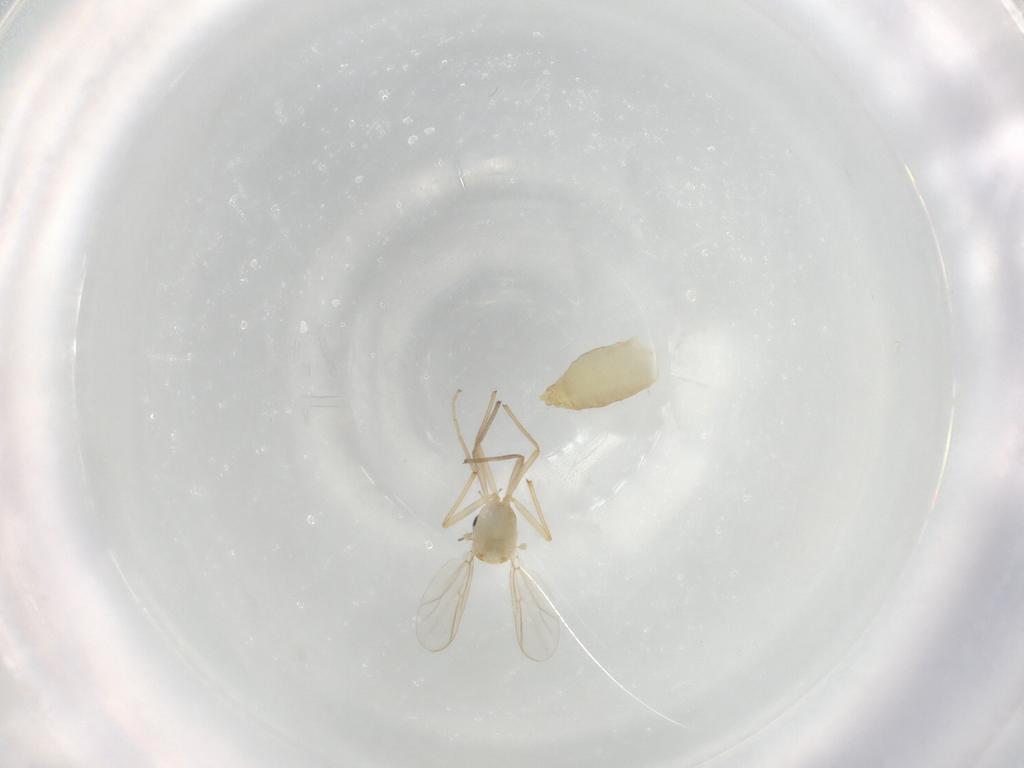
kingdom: Animalia
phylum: Arthropoda
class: Insecta
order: Diptera
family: Chironomidae
